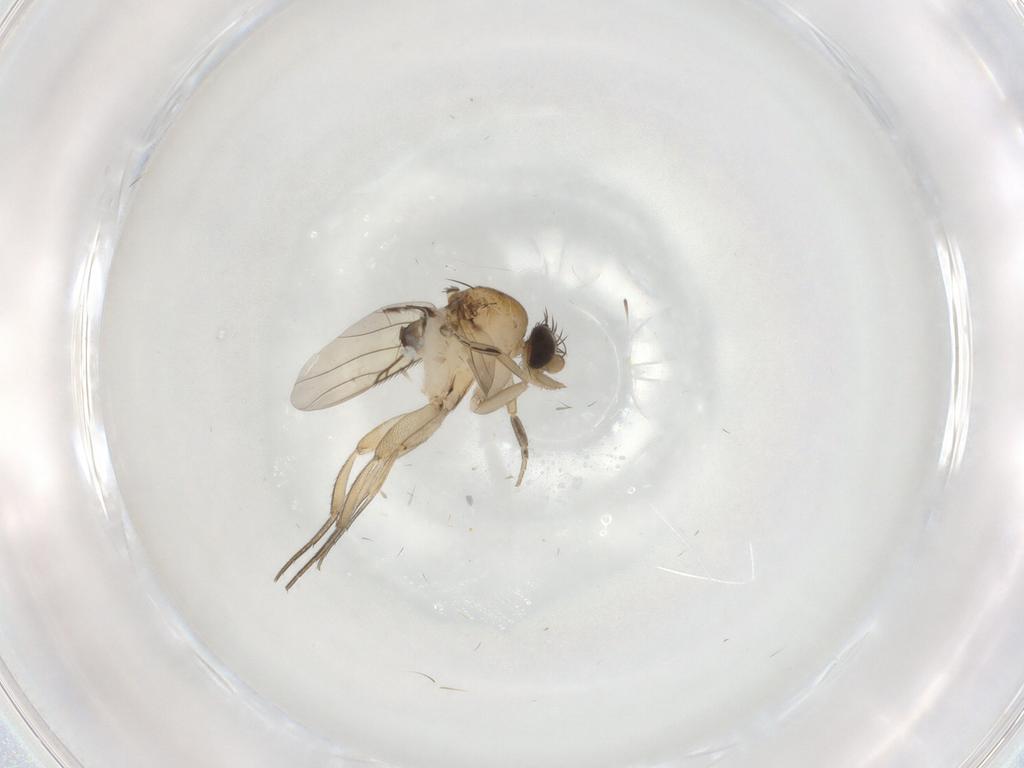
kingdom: Animalia
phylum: Arthropoda
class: Insecta
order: Diptera
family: Phoridae
